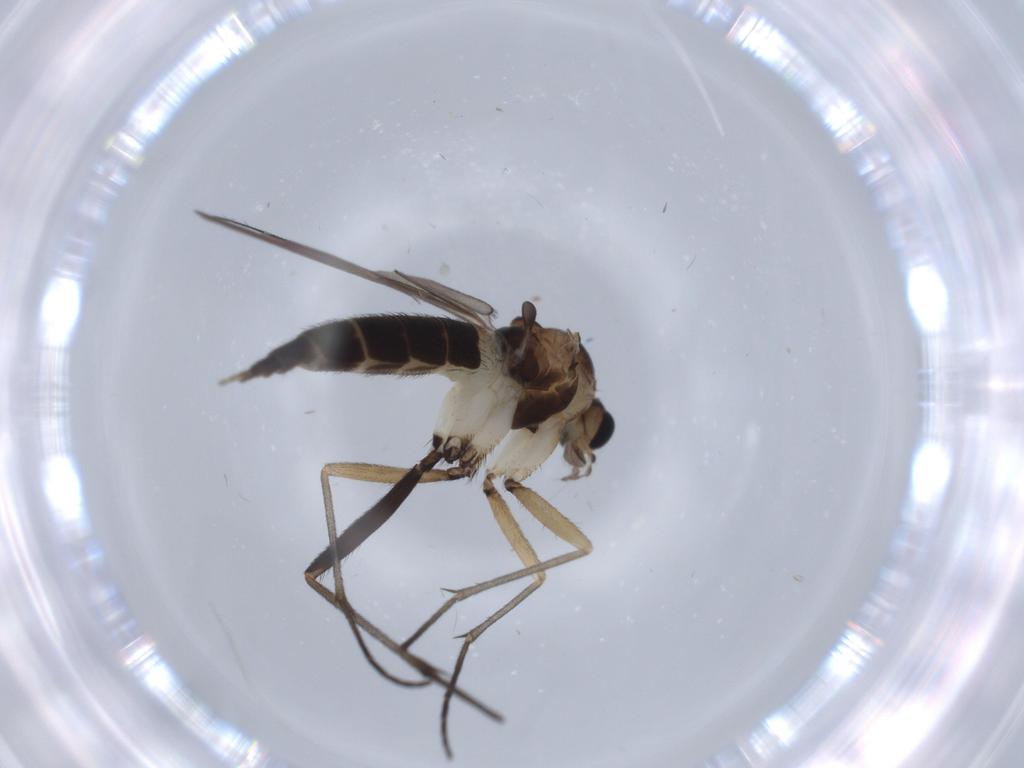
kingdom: Animalia
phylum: Arthropoda
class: Insecta
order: Diptera
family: Sciaridae
